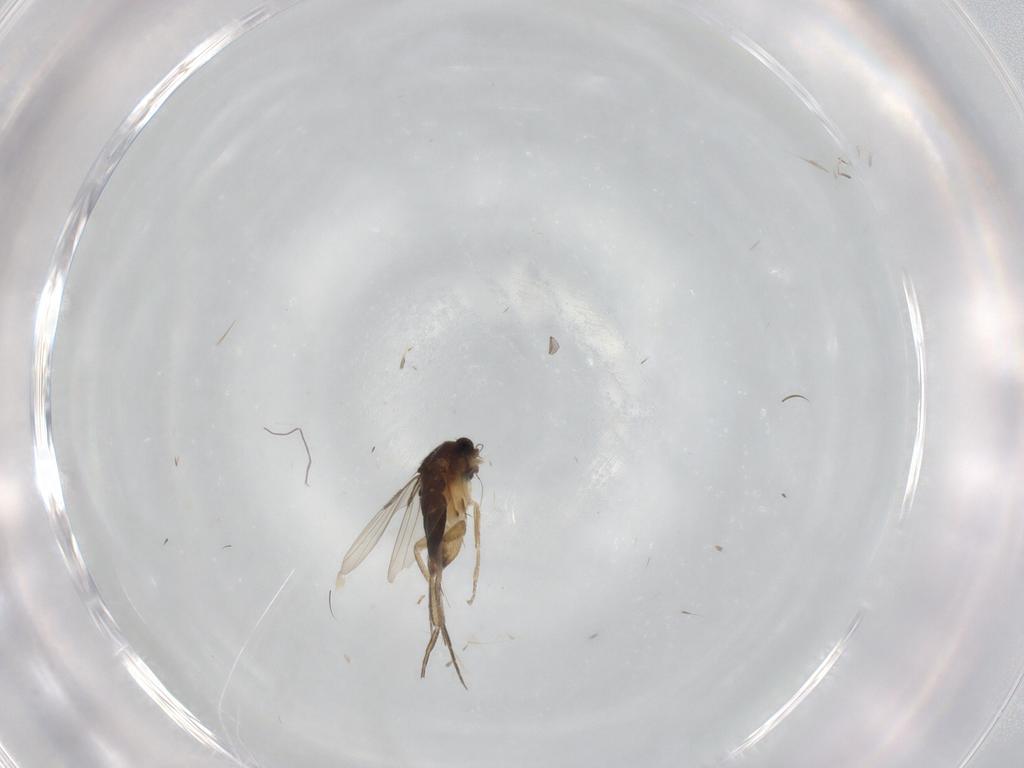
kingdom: Animalia
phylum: Arthropoda
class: Insecta
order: Diptera
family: Phoridae
